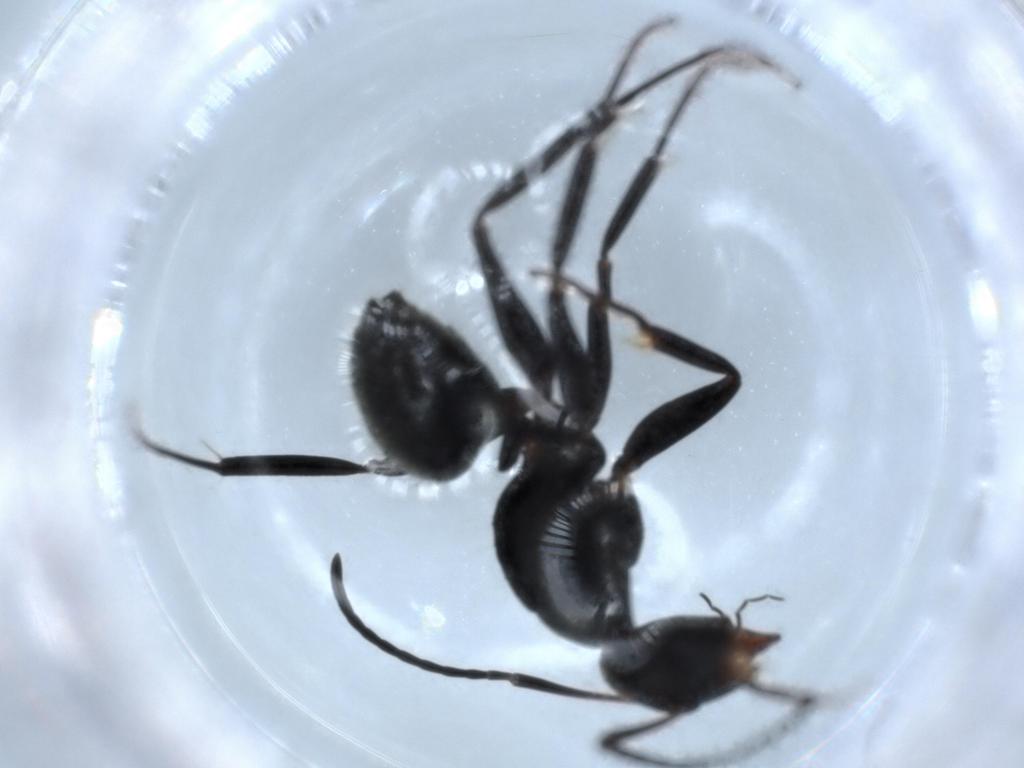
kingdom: Animalia
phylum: Arthropoda
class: Insecta
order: Hymenoptera
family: Formicidae
